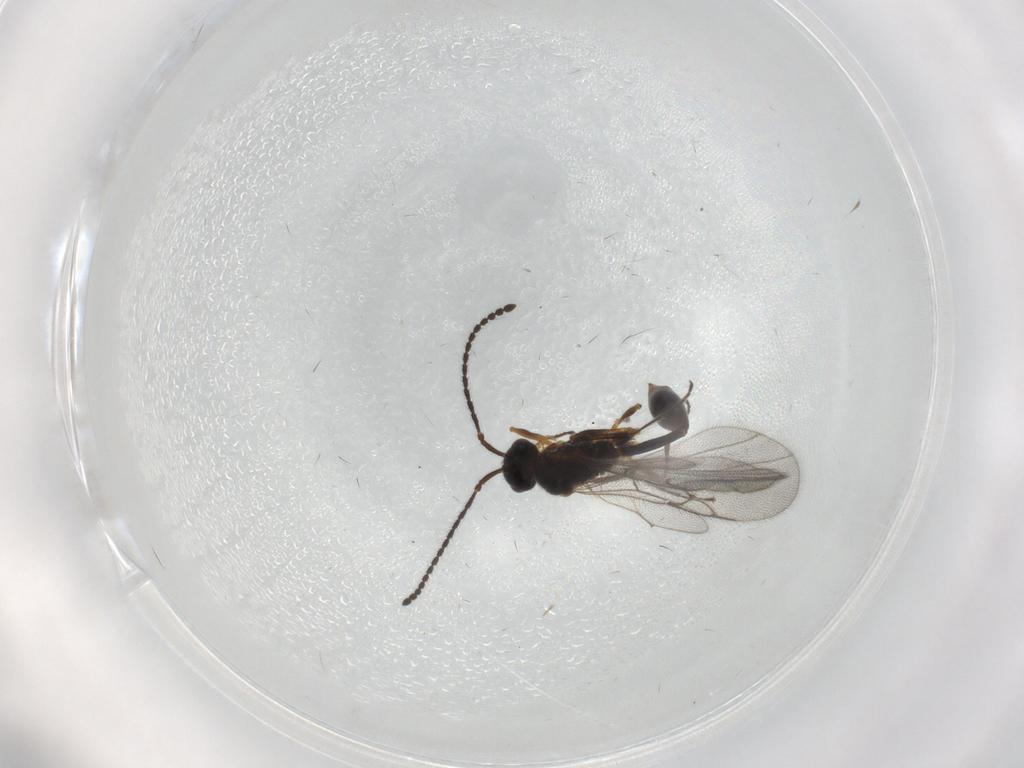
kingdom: Animalia
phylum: Arthropoda
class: Insecta
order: Hymenoptera
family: Diapriidae
